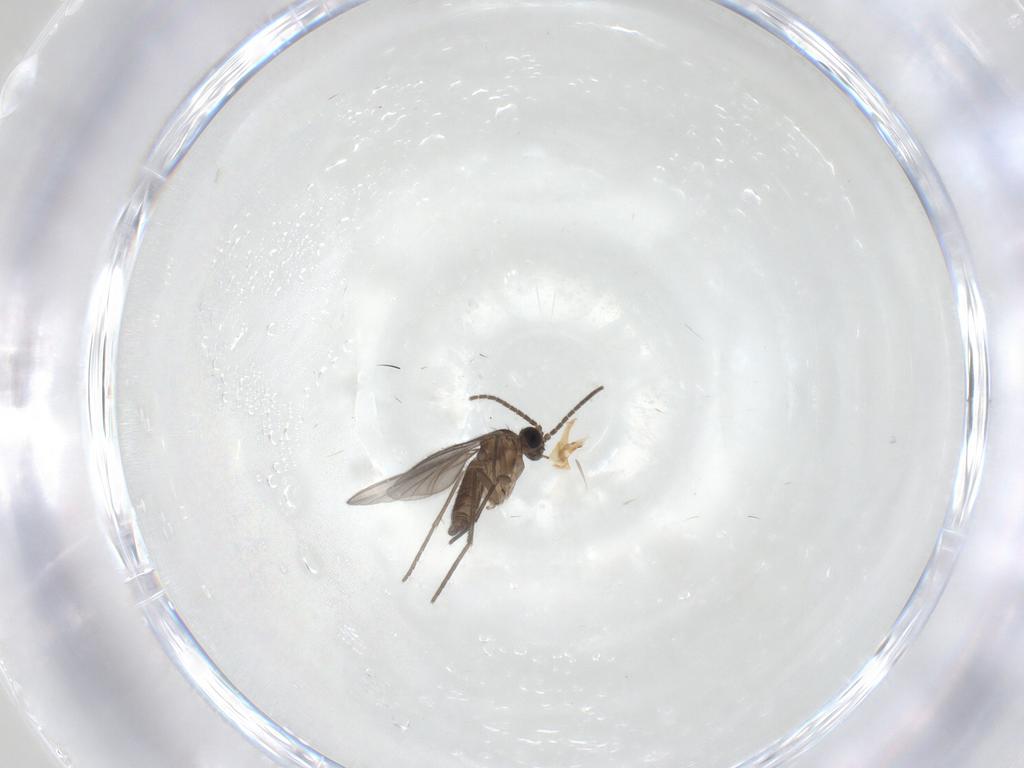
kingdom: Animalia
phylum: Arthropoda
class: Insecta
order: Diptera
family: Sciaridae
